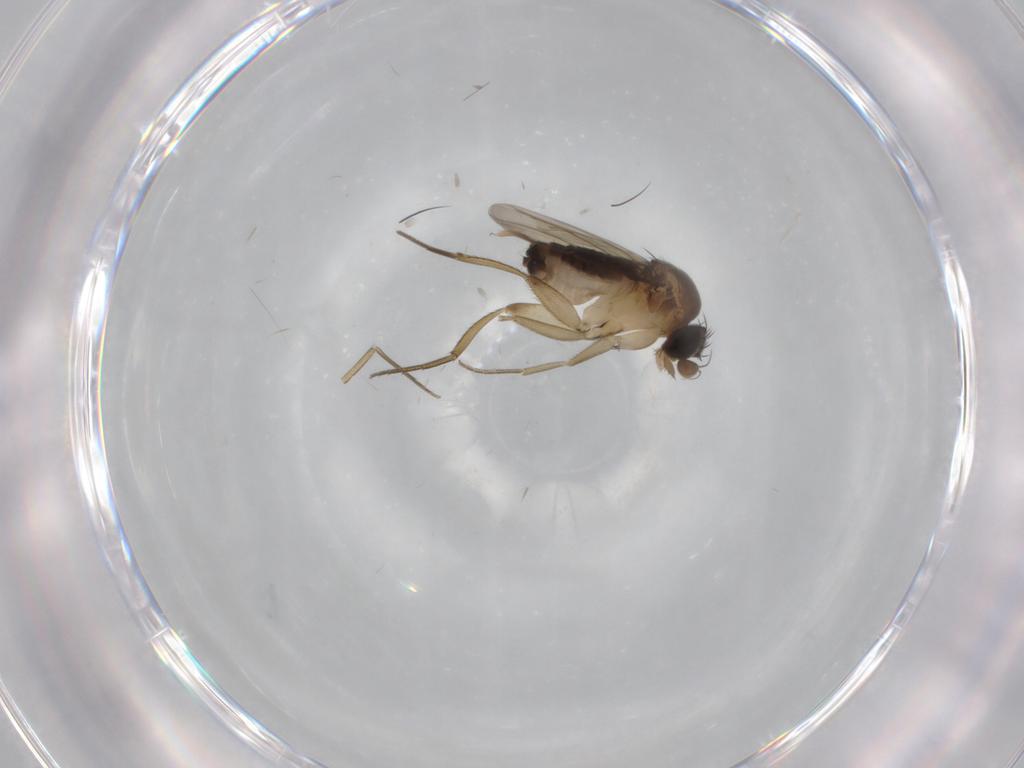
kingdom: Animalia
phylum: Arthropoda
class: Insecta
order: Diptera
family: Phoridae
